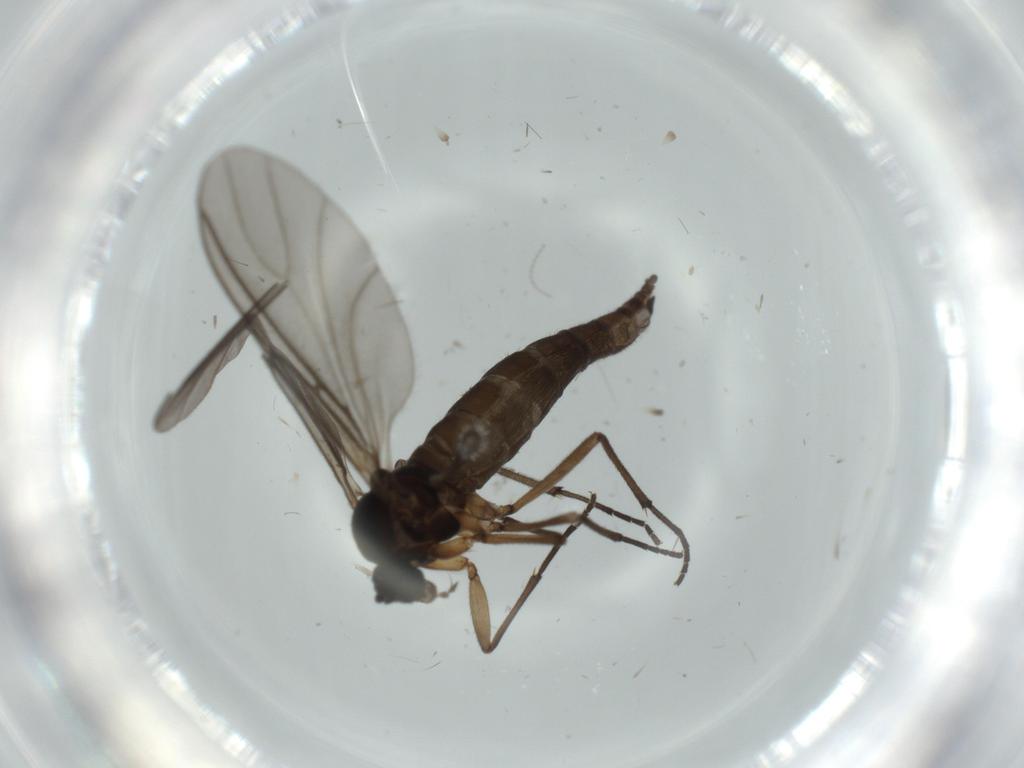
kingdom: Animalia
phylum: Arthropoda
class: Insecta
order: Diptera
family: Sciaridae
